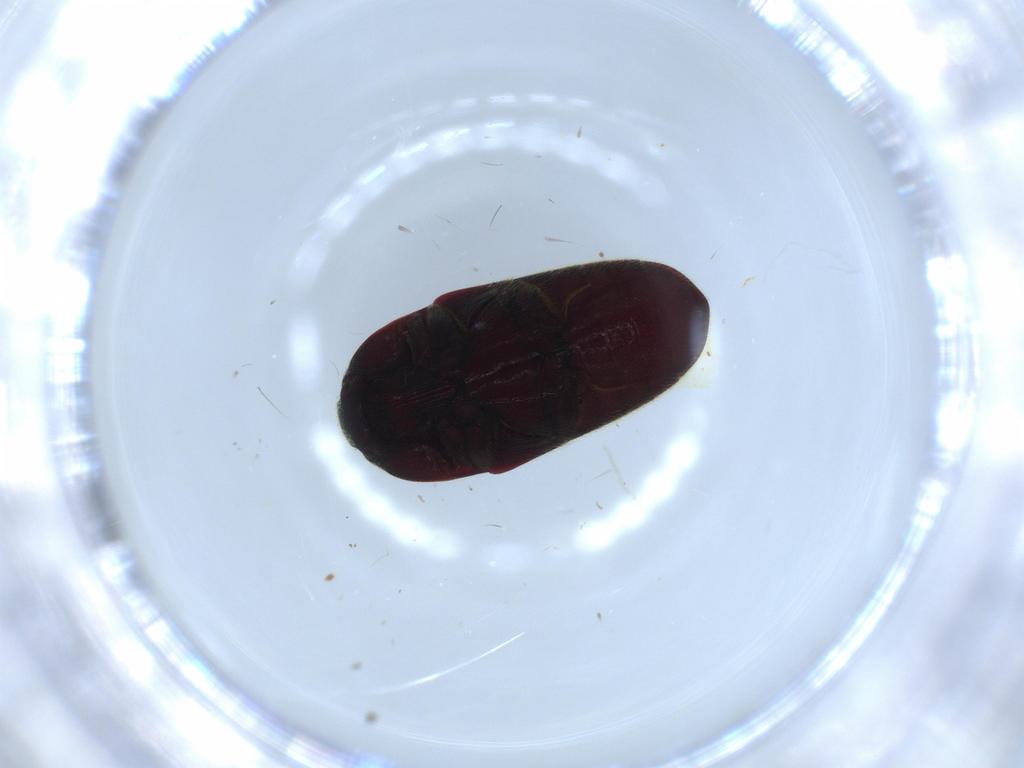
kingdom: Animalia
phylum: Arthropoda
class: Insecta
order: Coleoptera
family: Throscidae
